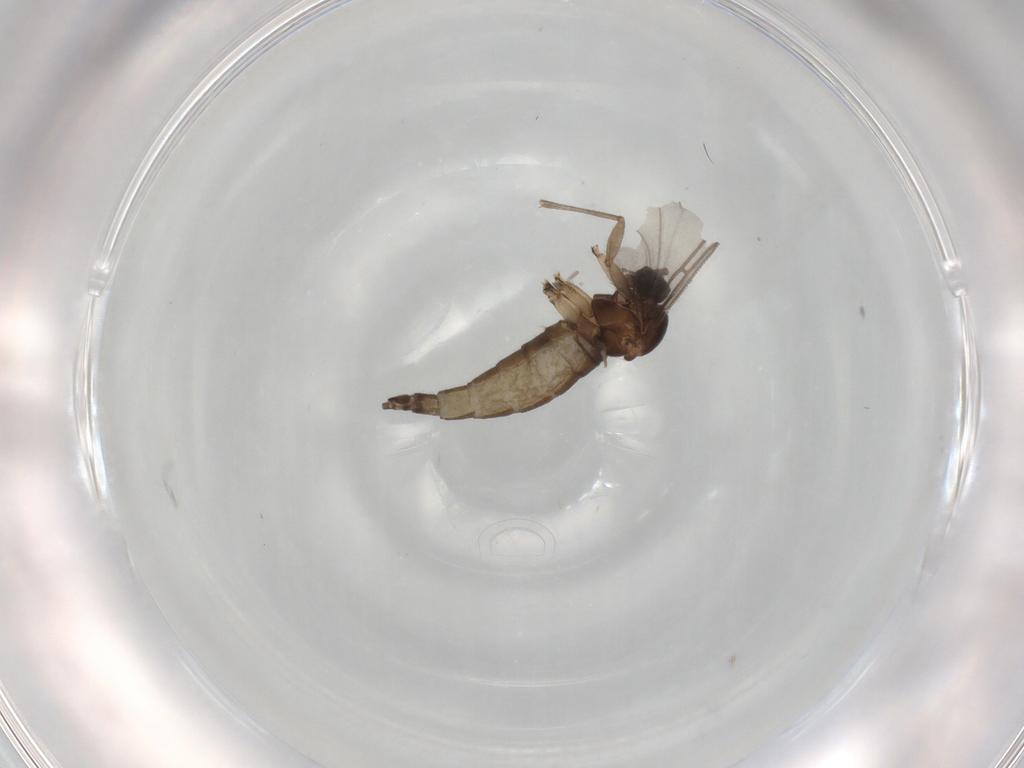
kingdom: Animalia
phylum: Arthropoda
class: Insecta
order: Diptera
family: Sciaridae
